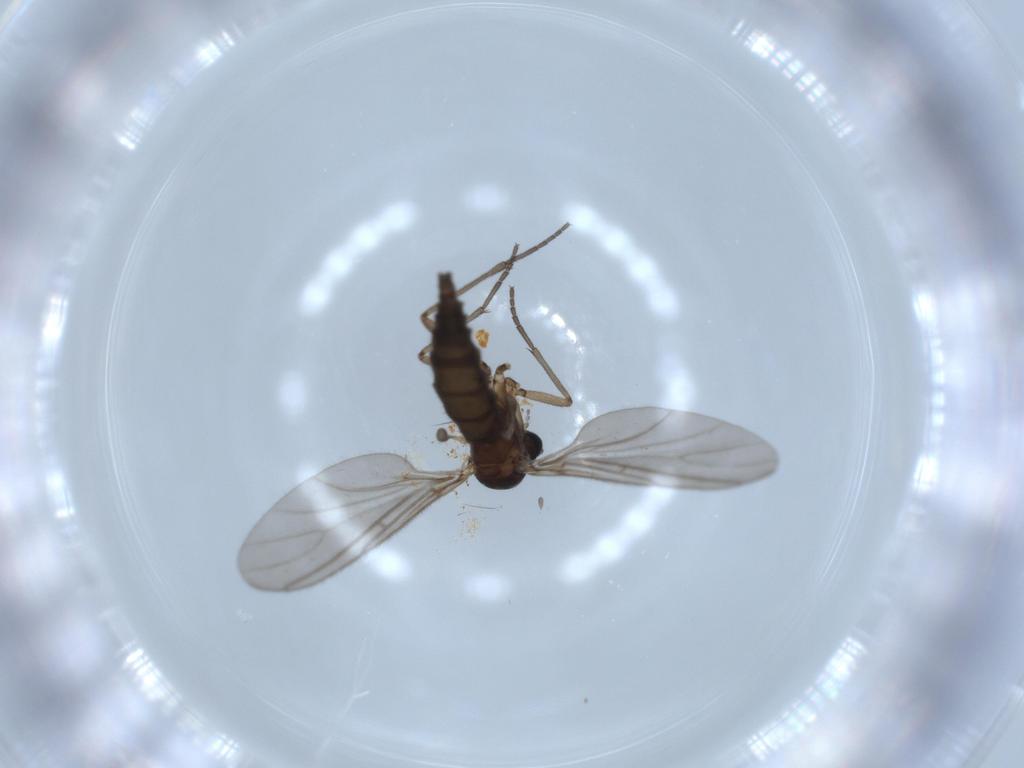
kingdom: Animalia
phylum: Arthropoda
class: Insecta
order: Diptera
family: Sciaridae
